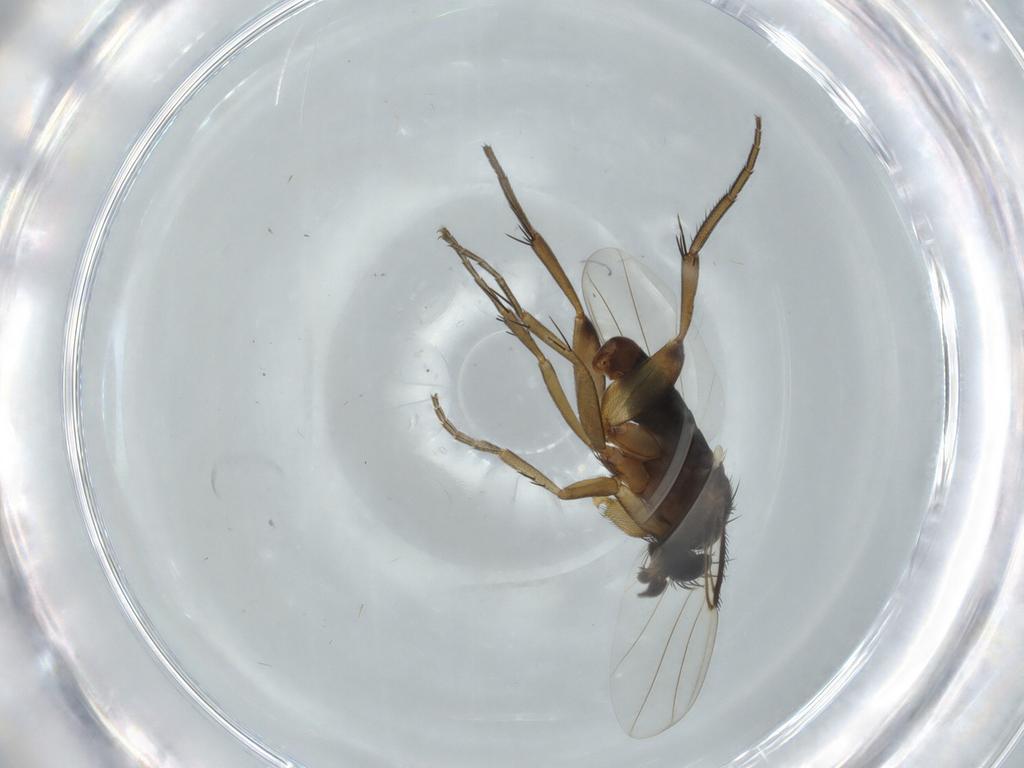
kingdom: Animalia
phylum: Arthropoda
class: Insecta
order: Diptera
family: Phoridae
